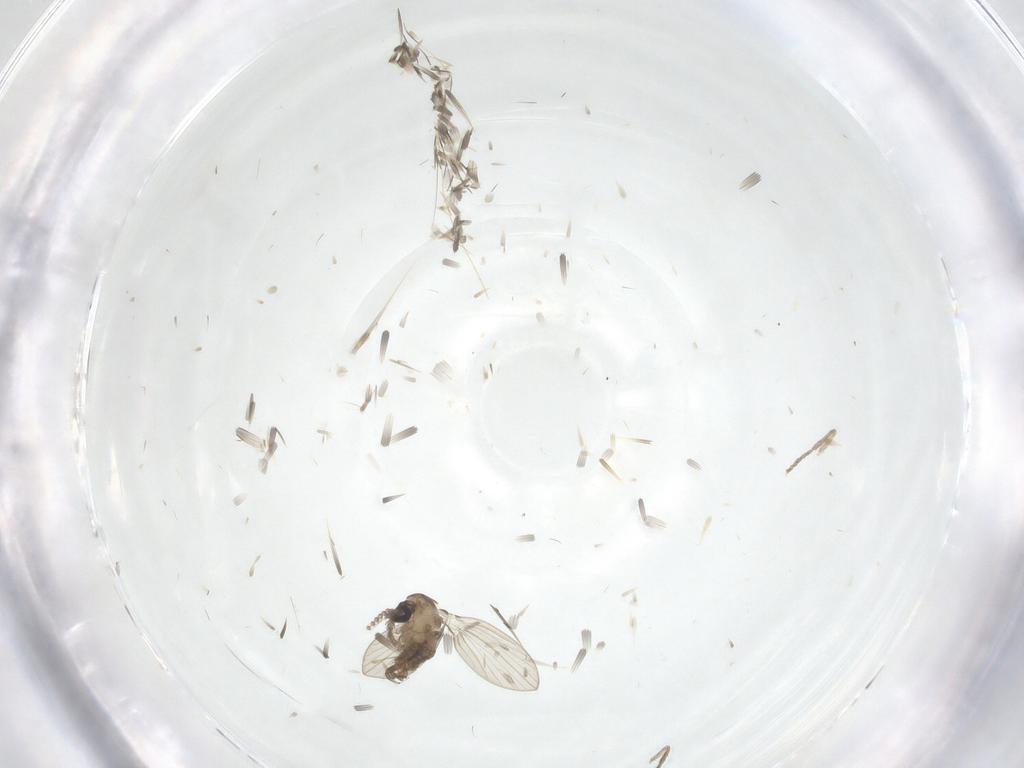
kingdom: Animalia
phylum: Arthropoda
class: Insecta
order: Diptera
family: Psychodidae
